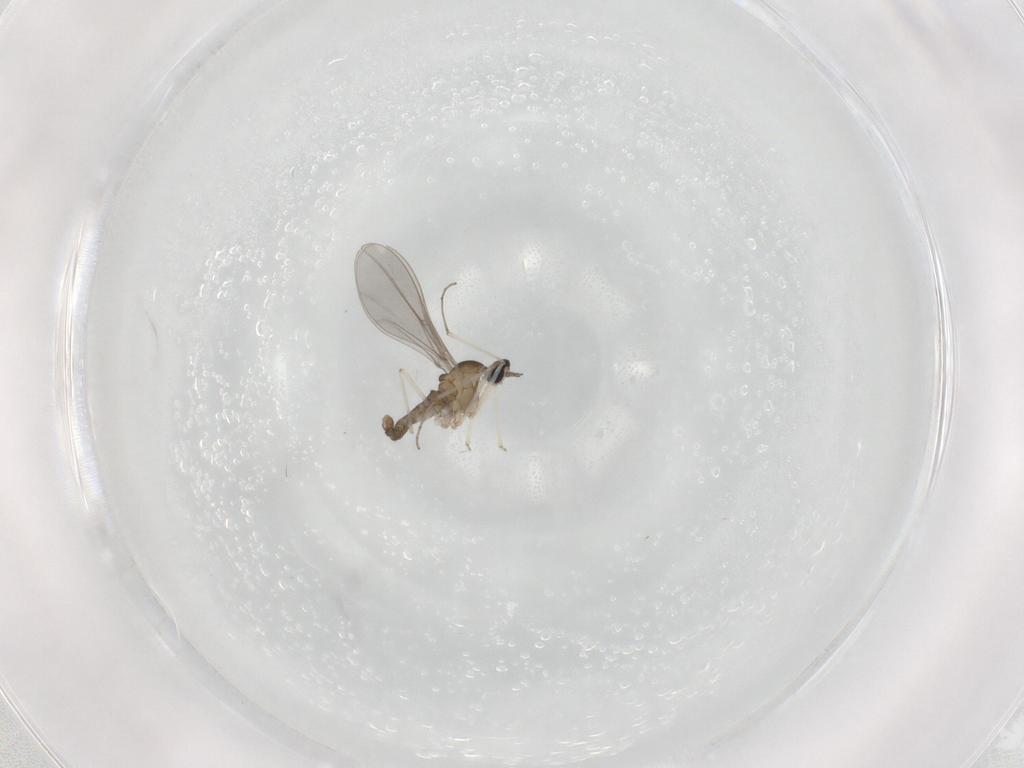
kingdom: Animalia
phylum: Arthropoda
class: Insecta
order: Diptera
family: Cecidomyiidae
